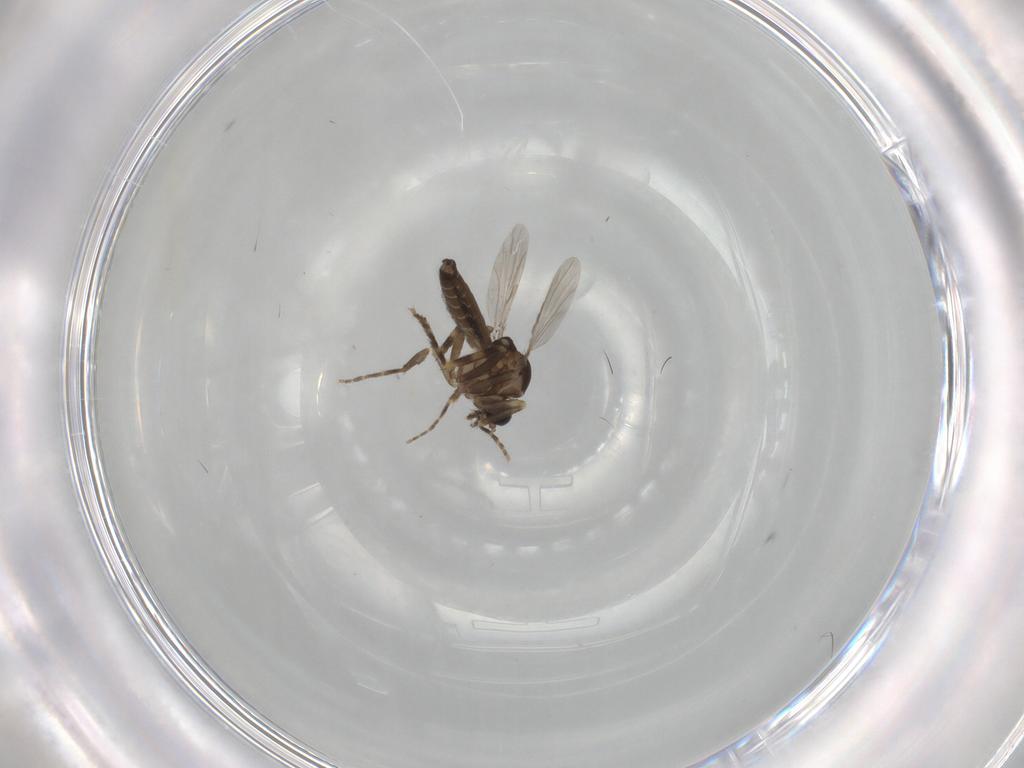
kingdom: Animalia
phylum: Arthropoda
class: Insecta
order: Diptera
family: Ceratopogonidae
